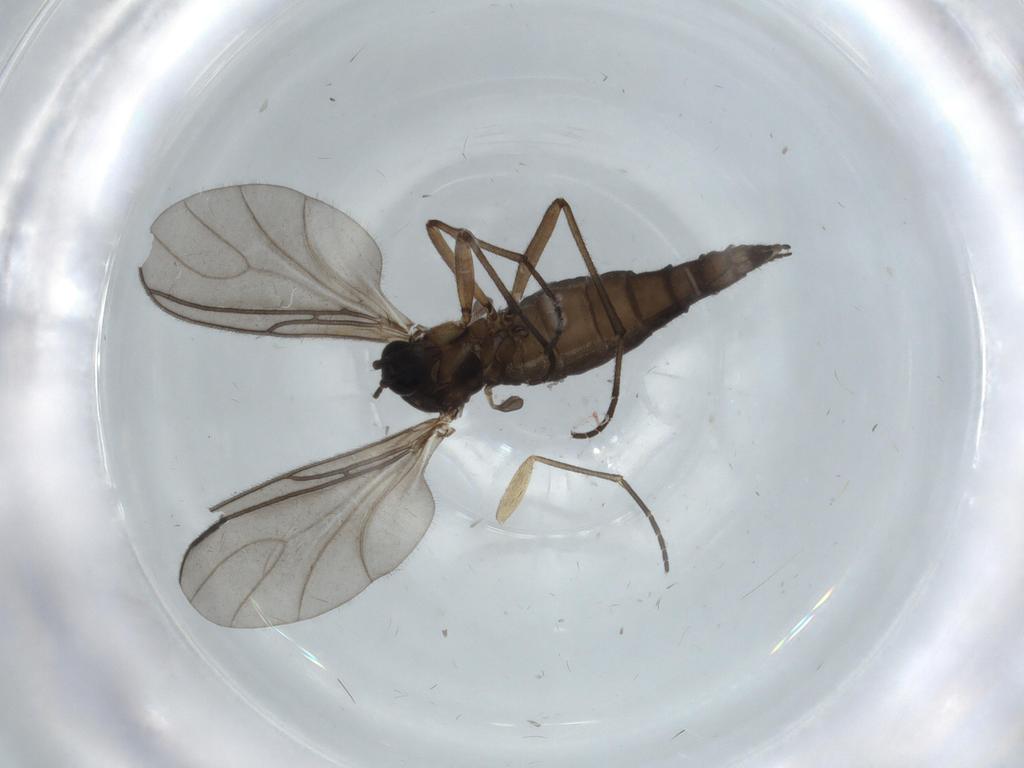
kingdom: Animalia
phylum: Arthropoda
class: Insecta
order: Diptera
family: Sciaridae
